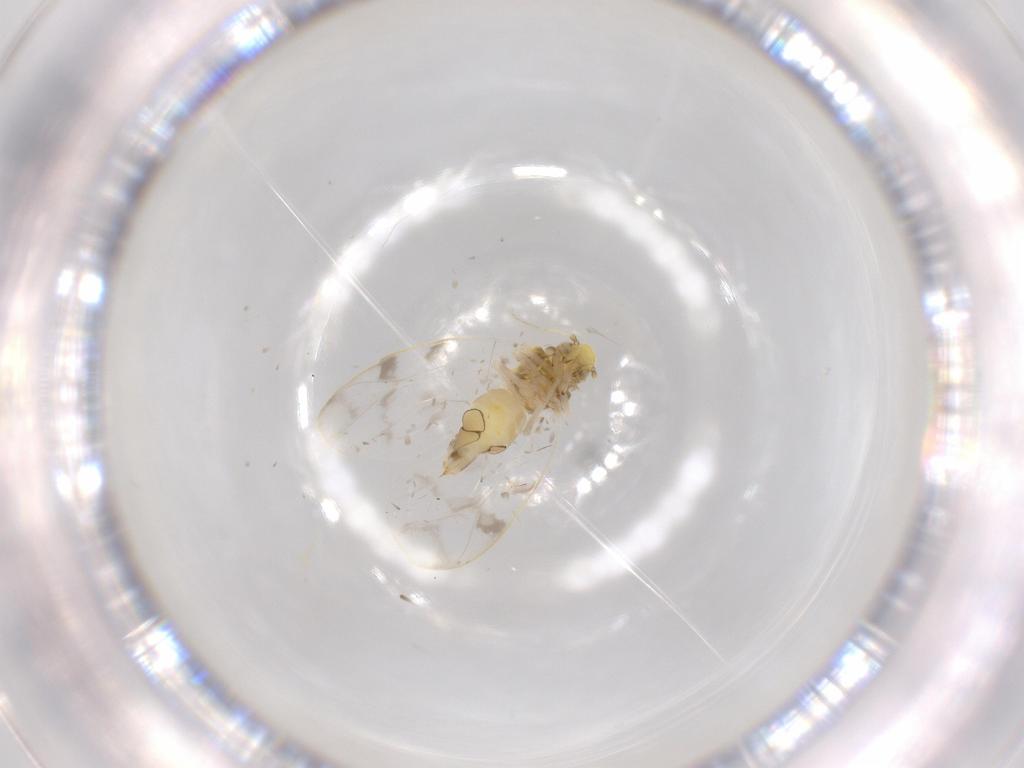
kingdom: Animalia
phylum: Arthropoda
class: Insecta
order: Hemiptera
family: Aleyrodidae
